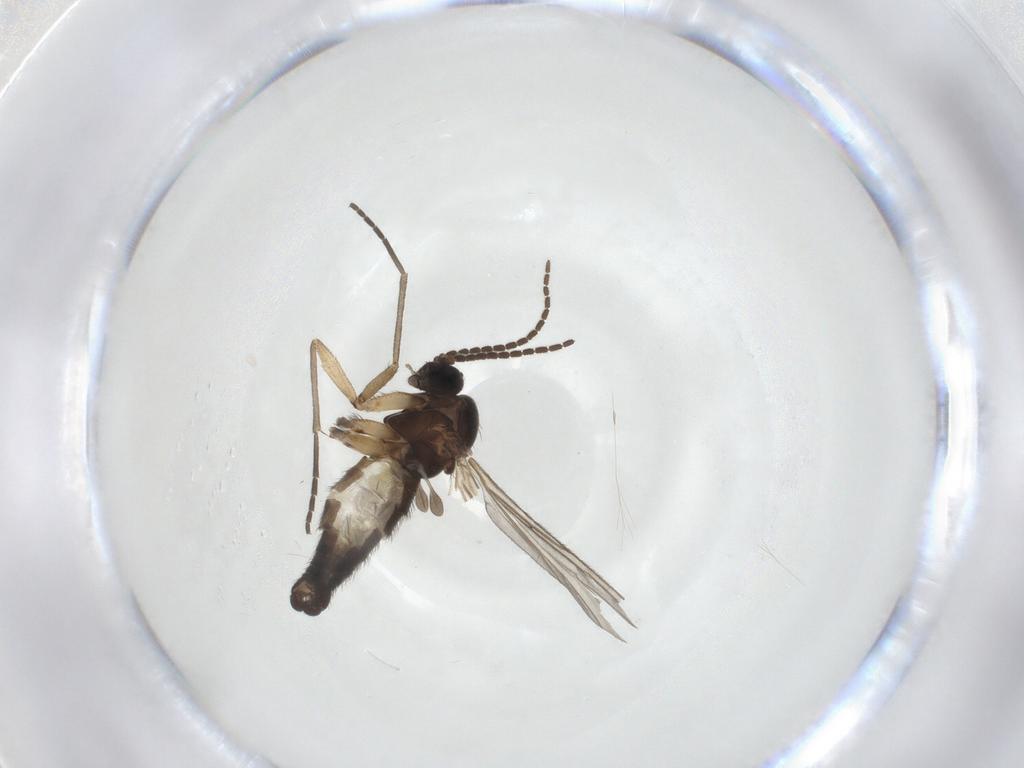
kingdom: Animalia
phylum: Arthropoda
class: Insecta
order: Diptera
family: Sciaridae
